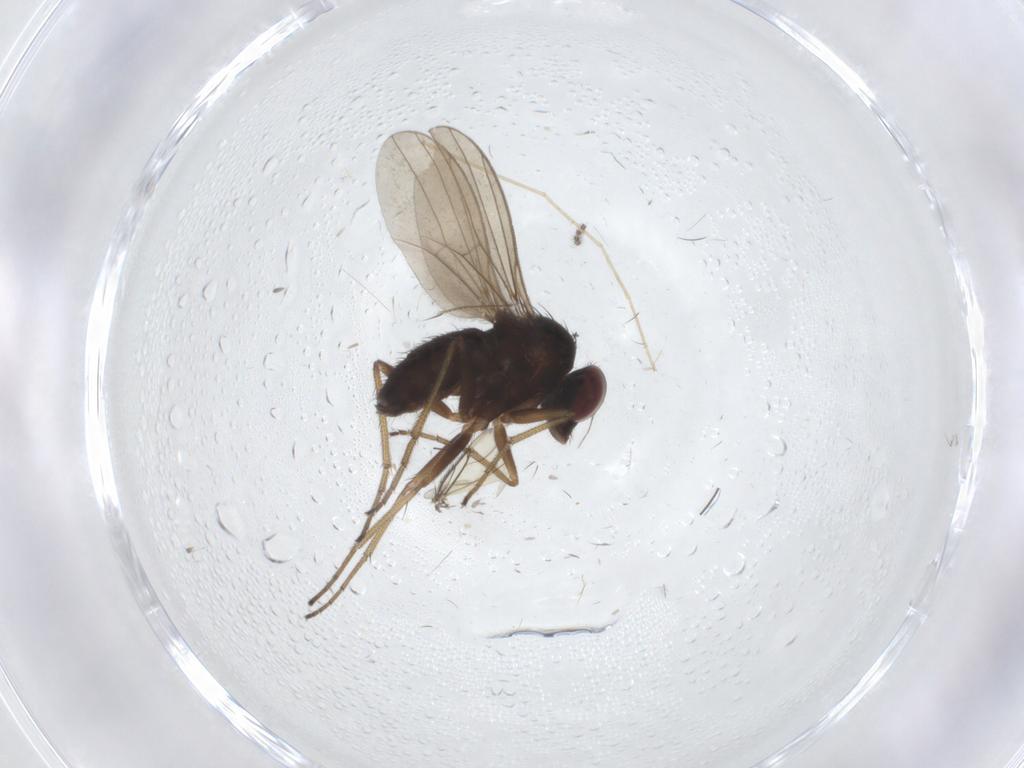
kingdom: Animalia
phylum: Arthropoda
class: Insecta
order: Diptera
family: Dolichopodidae
